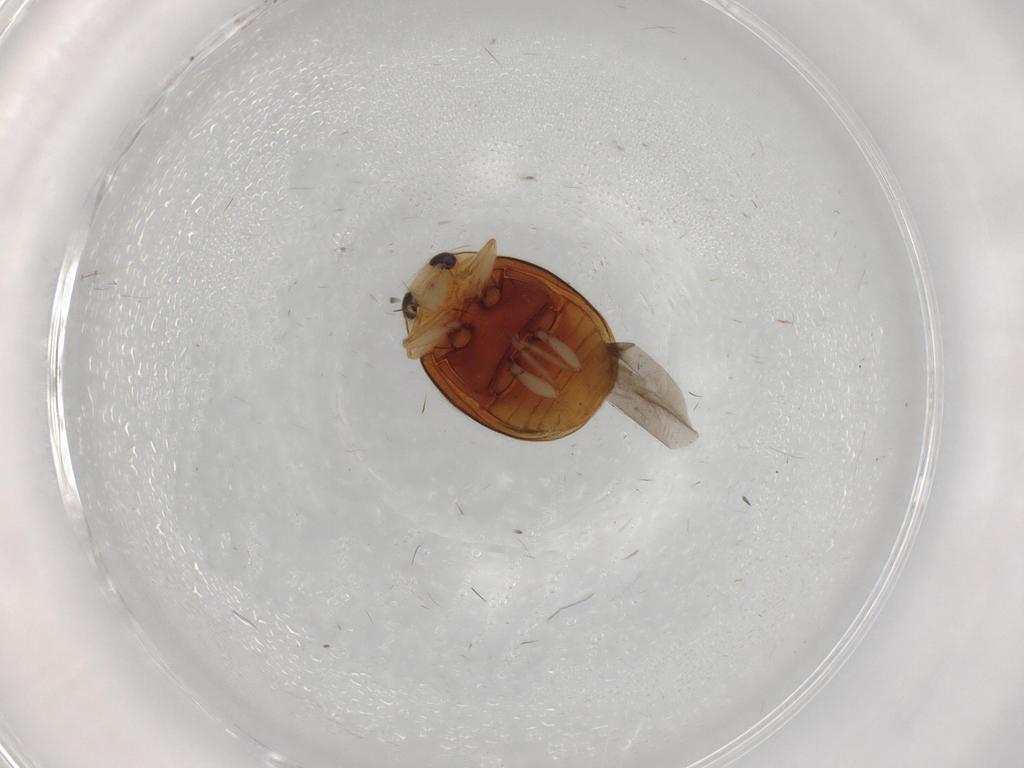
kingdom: Animalia
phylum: Arthropoda
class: Insecta
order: Coleoptera
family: Coccinellidae
